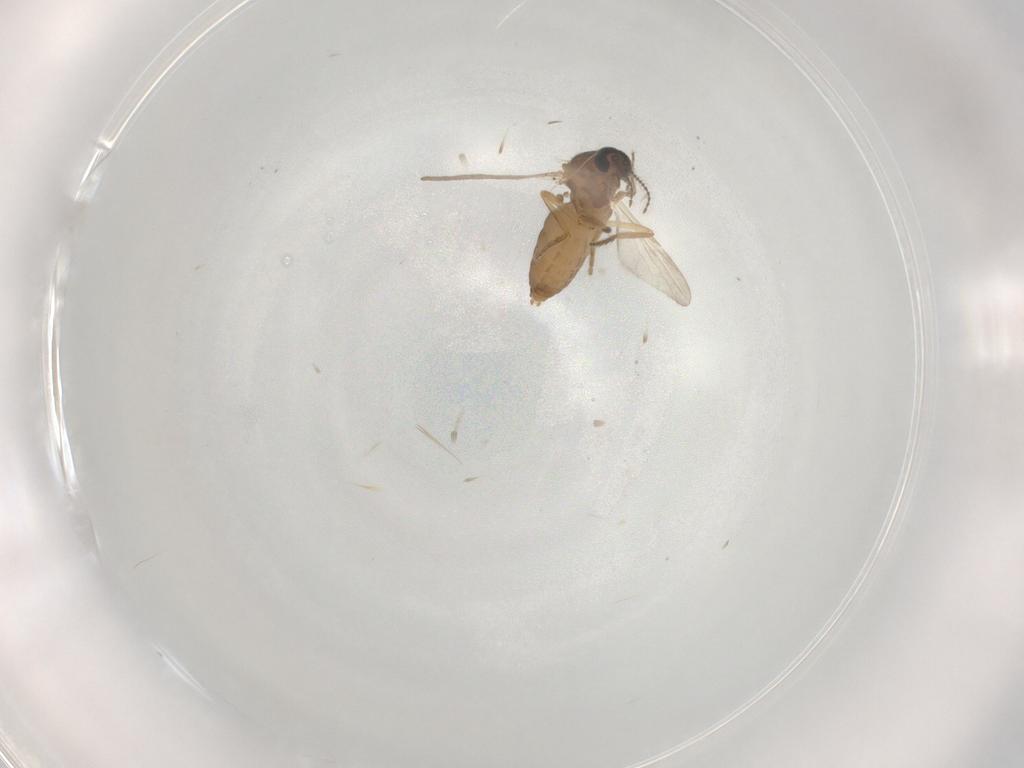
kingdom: Animalia
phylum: Arthropoda
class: Insecta
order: Diptera
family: Ceratopogonidae
